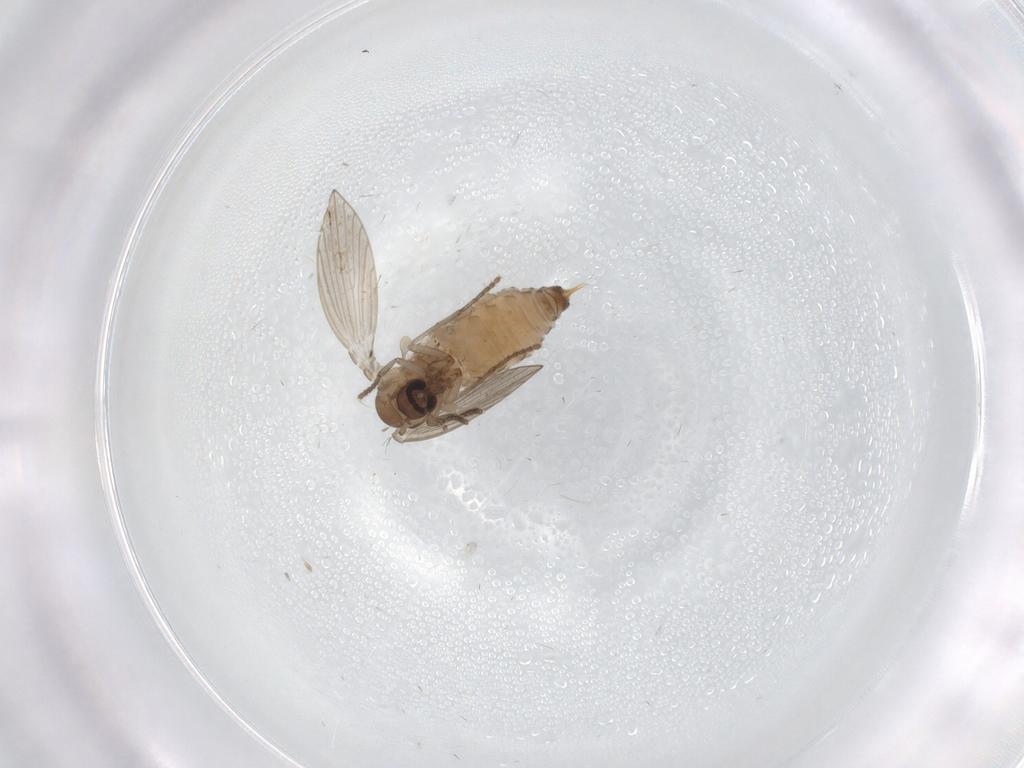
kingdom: Animalia
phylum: Arthropoda
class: Insecta
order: Diptera
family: Psychodidae
